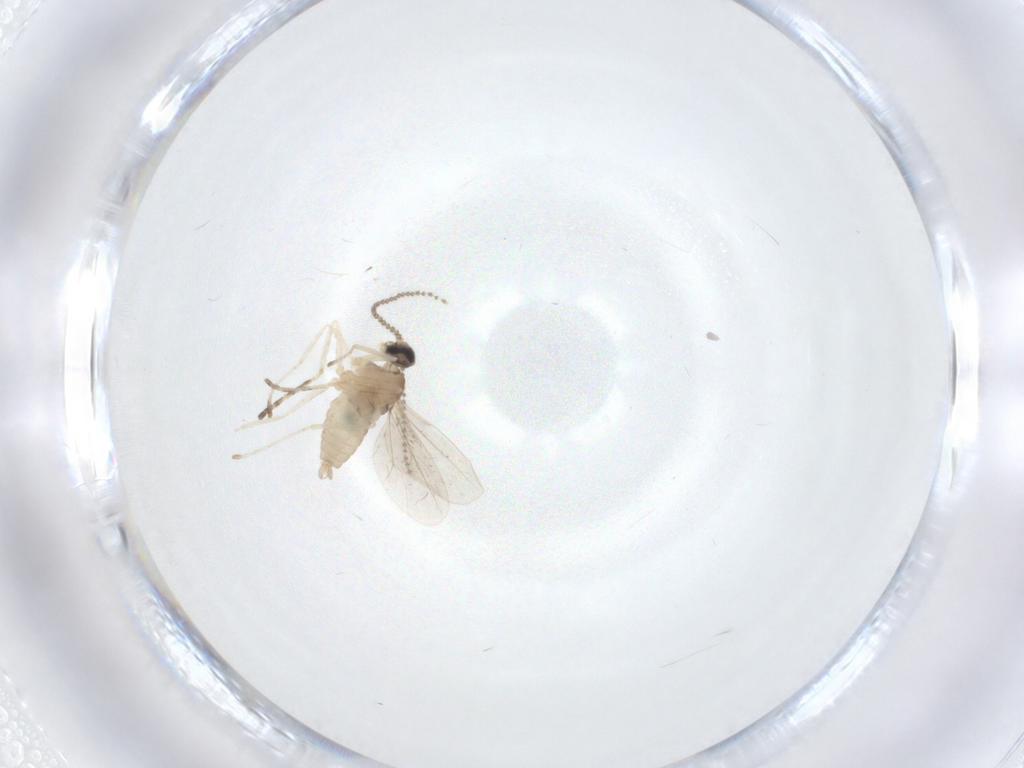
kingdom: Animalia
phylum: Arthropoda
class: Insecta
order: Diptera
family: Cecidomyiidae
